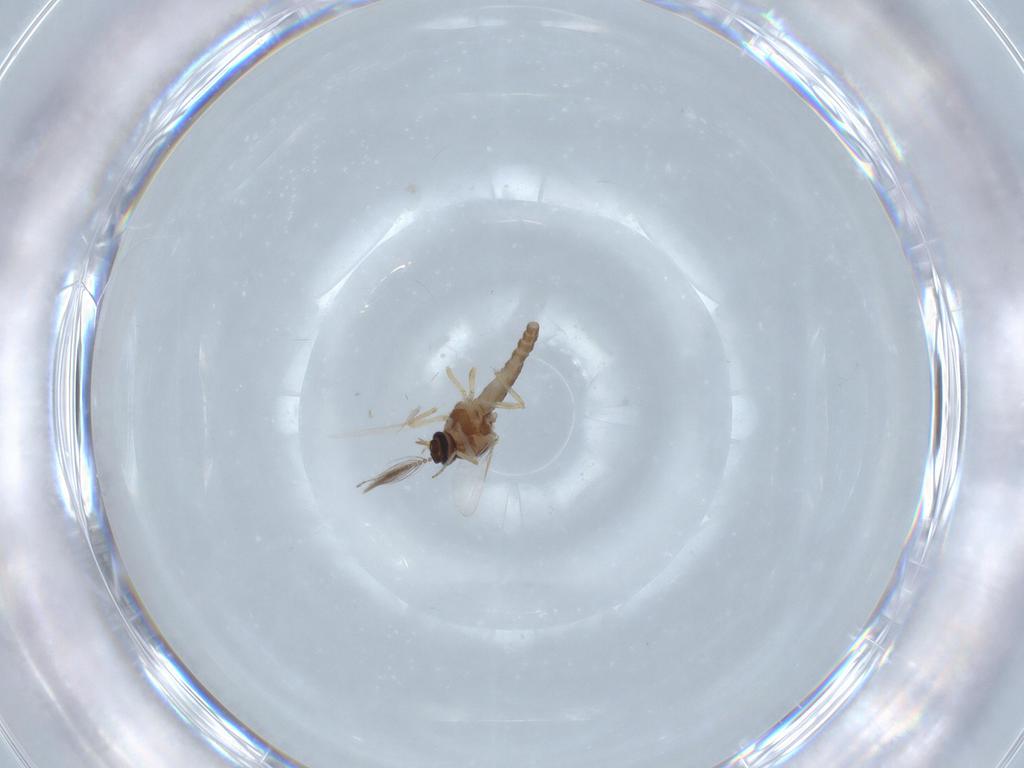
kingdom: Animalia
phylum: Arthropoda
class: Insecta
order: Diptera
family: Ceratopogonidae
